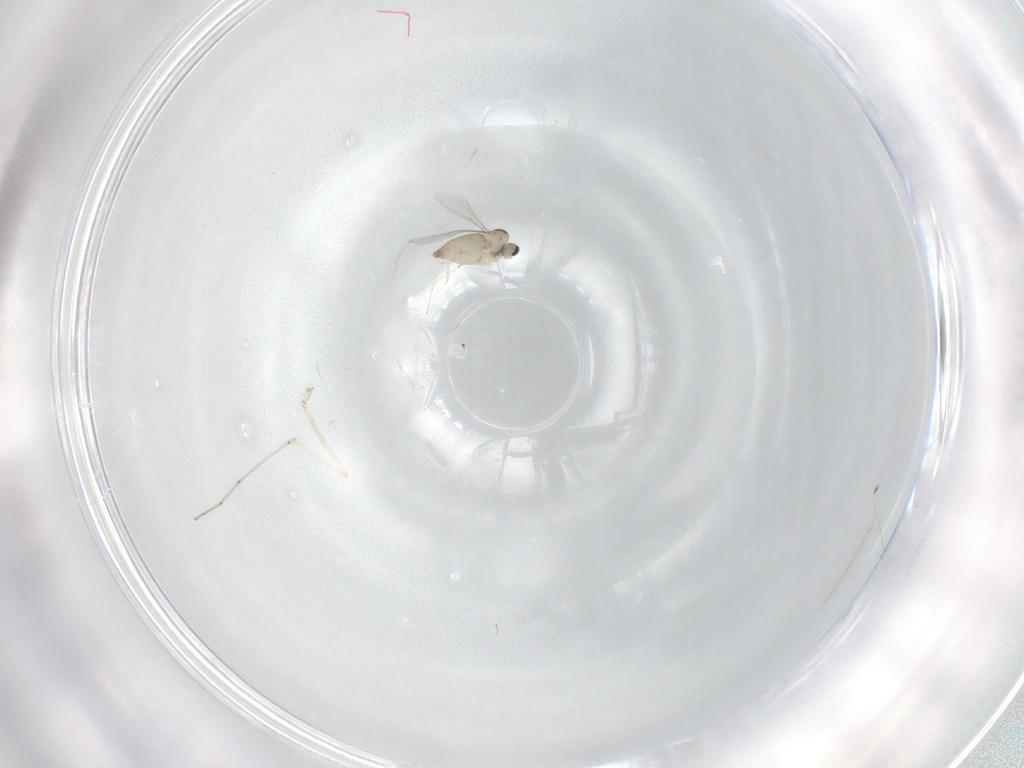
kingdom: Animalia
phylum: Arthropoda
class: Insecta
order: Diptera
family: Cecidomyiidae
